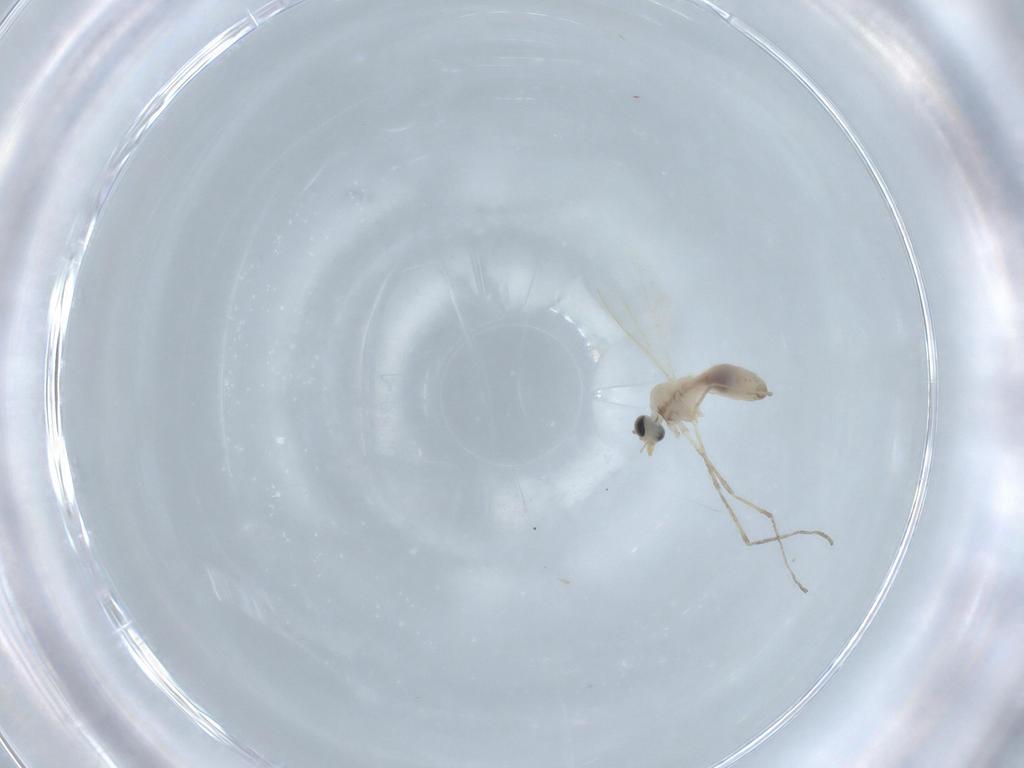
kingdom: Animalia
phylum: Arthropoda
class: Insecta
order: Diptera
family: Cecidomyiidae
